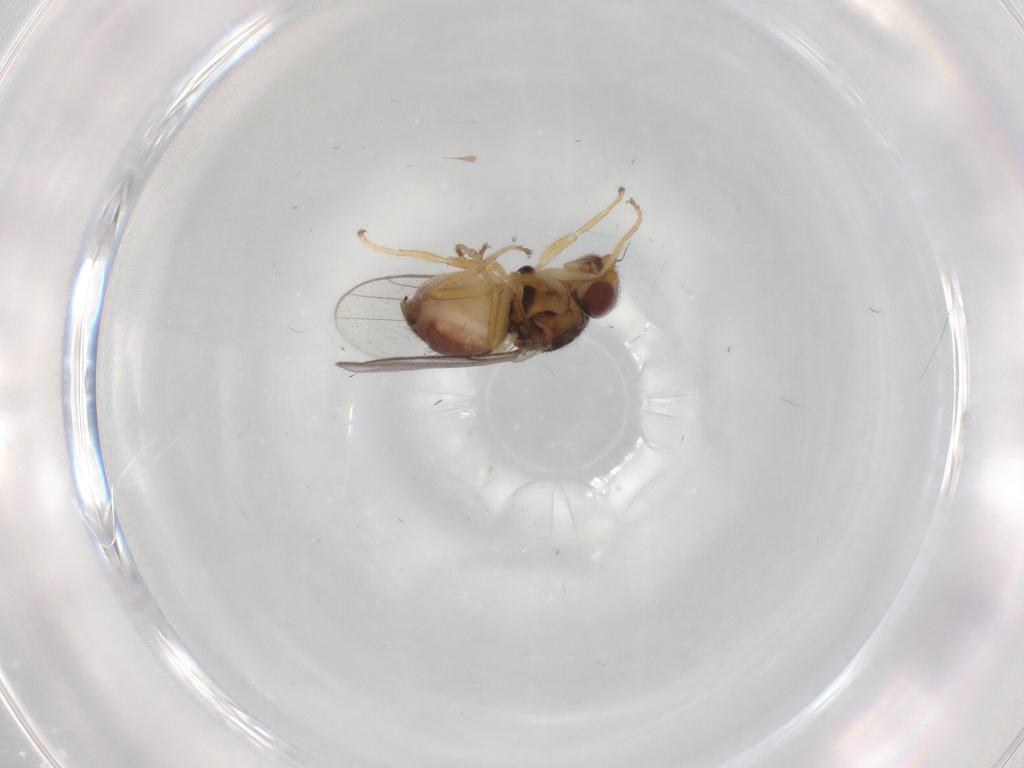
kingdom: Animalia
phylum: Arthropoda
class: Insecta
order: Diptera
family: Chloropidae
